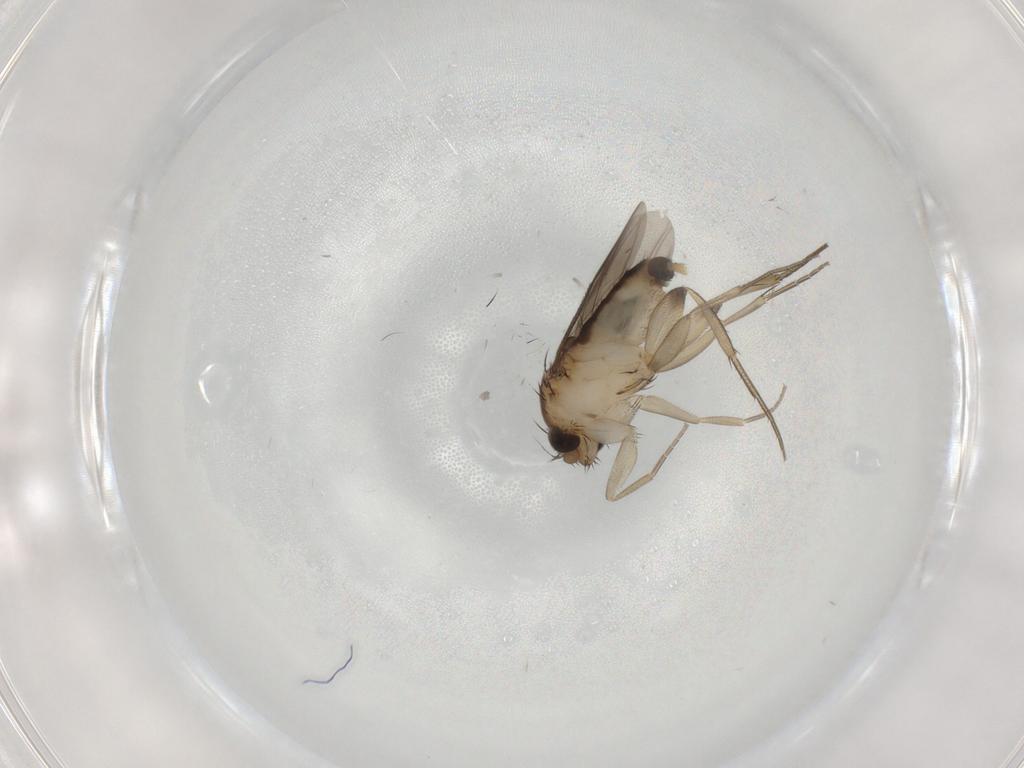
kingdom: Animalia
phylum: Arthropoda
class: Insecta
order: Diptera
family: Phoridae
